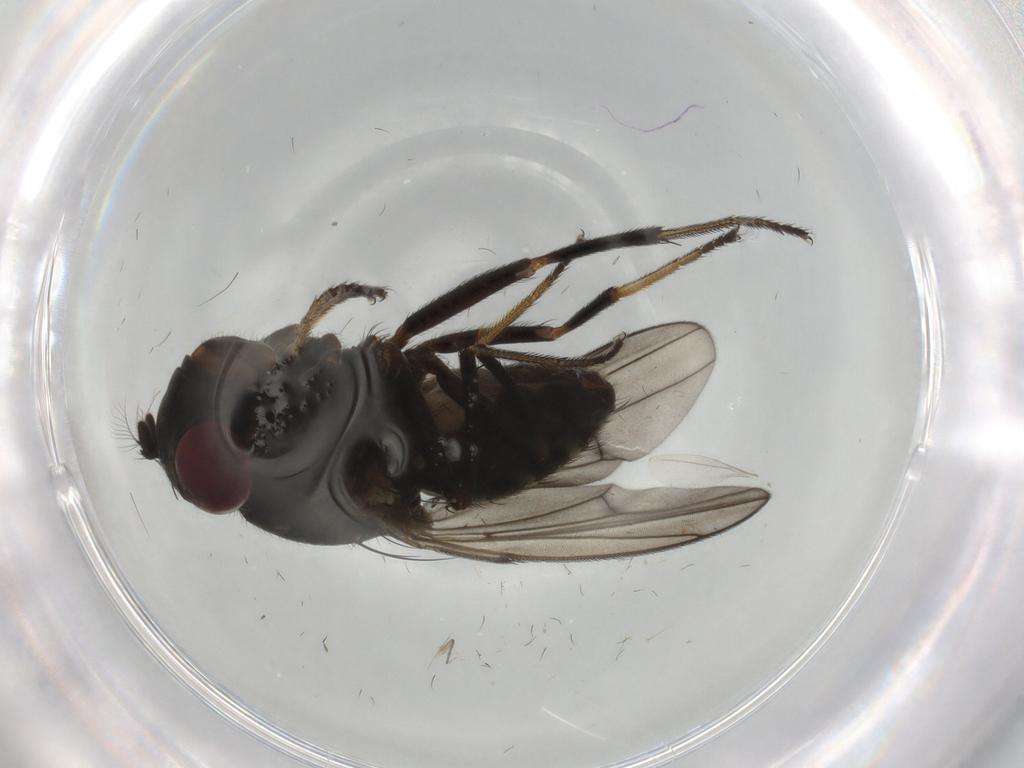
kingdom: Animalia
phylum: Arthropoda
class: Insecta
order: Diptera
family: Ephydridae
